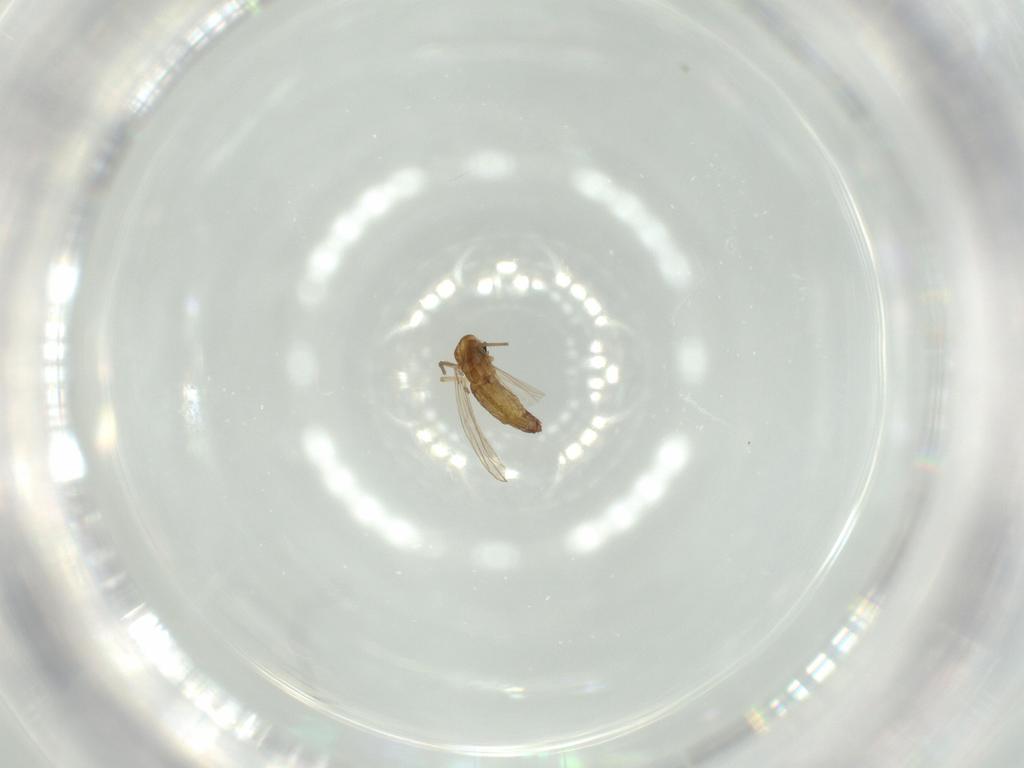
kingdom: Animalia
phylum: Arthropoda
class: Insecta
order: Diptera
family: Chironomidae
